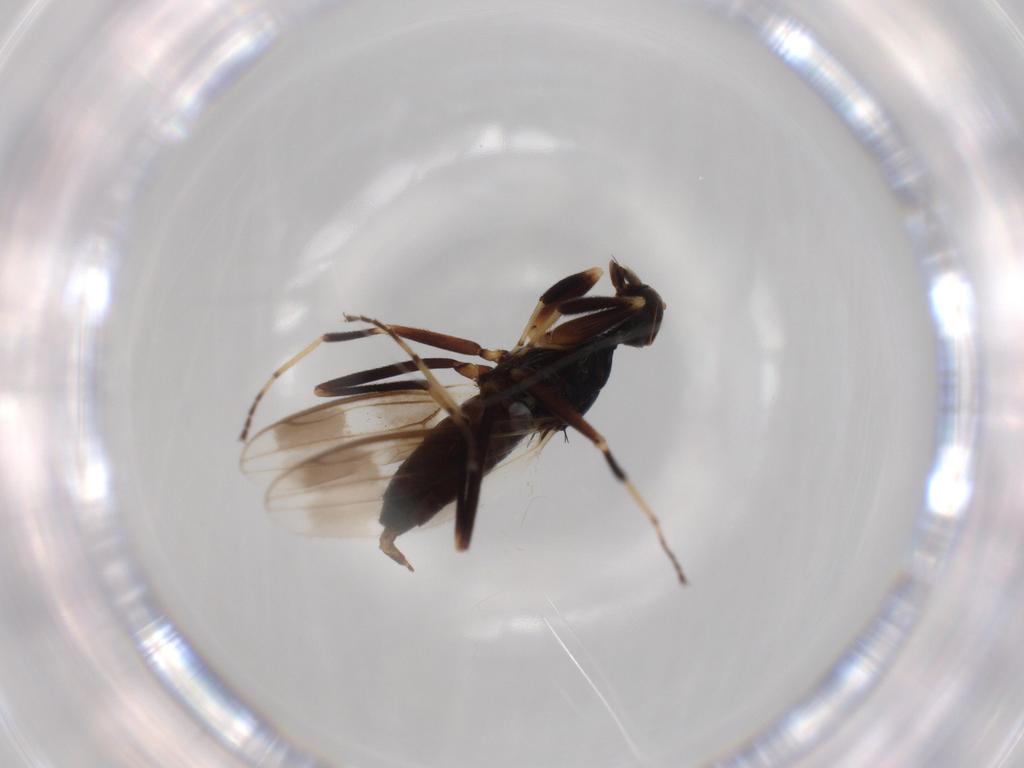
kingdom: Animalia
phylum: Arthropoda
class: Insecta
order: Diptera
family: Hybotidae
